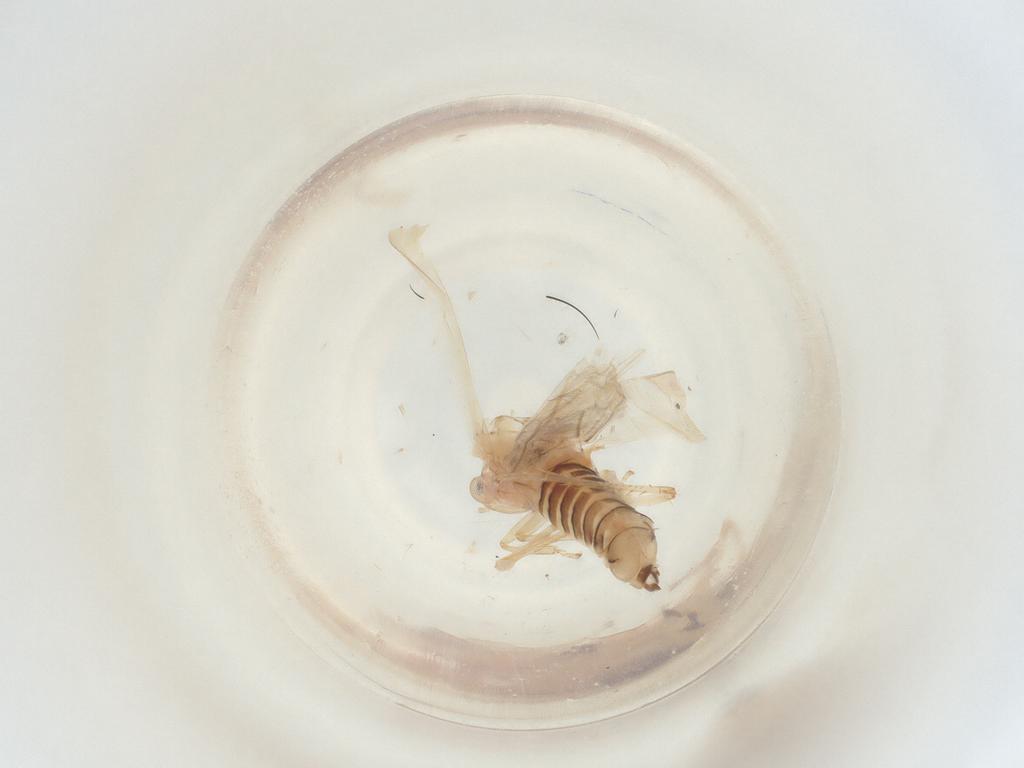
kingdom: Animalia
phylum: Arthropoda
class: Insecta
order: Hemiptera
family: Cicadellidae
